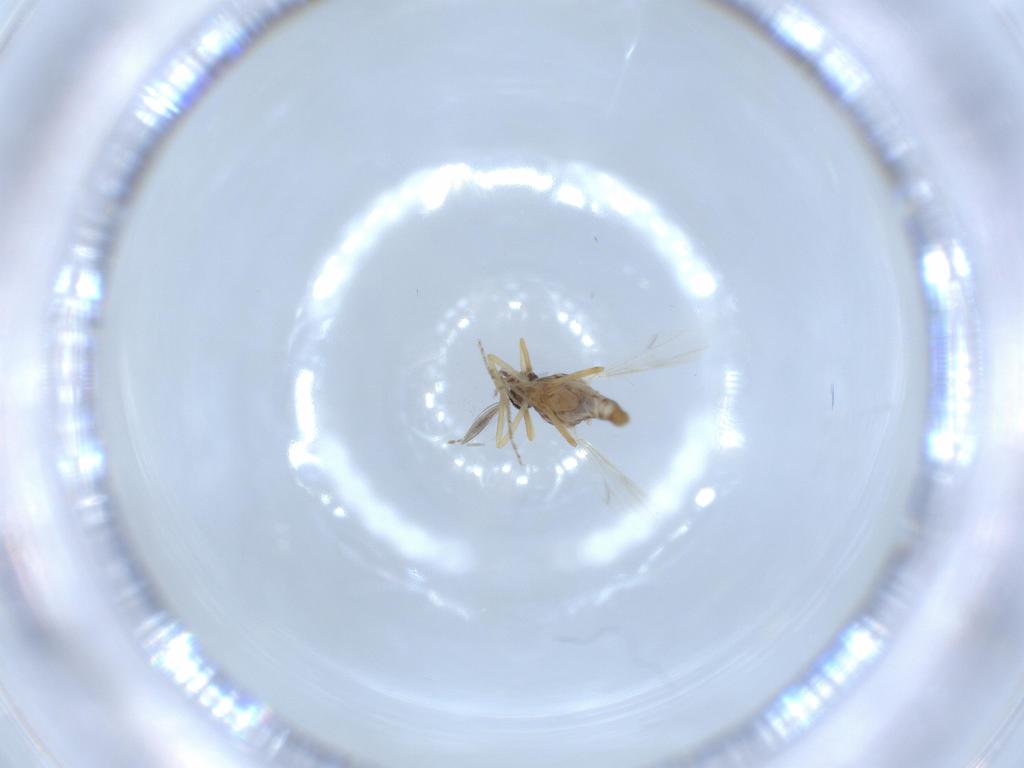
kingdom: Animalia
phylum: Arthropoda
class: Insecta
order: Diptera
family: Ceratopogonidae
